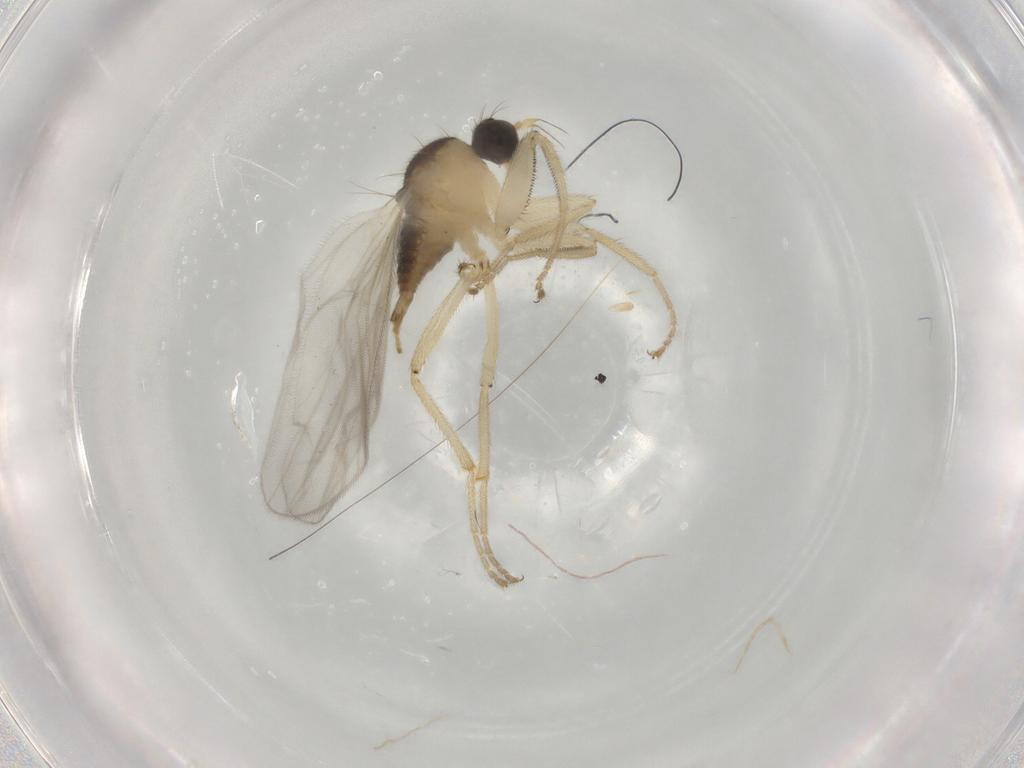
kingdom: Animalia
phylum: Arthropoda
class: Insecta
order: Diptera
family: Hybotidae
